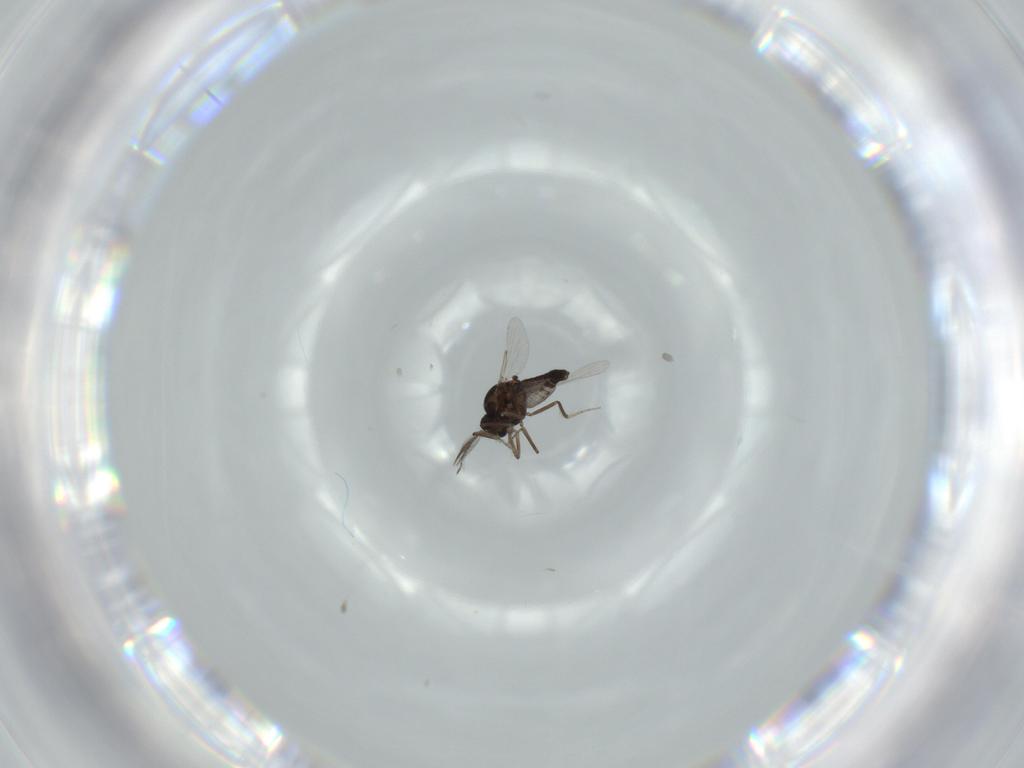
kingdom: Animalia
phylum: Arthropoda
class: Insecta
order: Diptera
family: Ceratopogonidae
